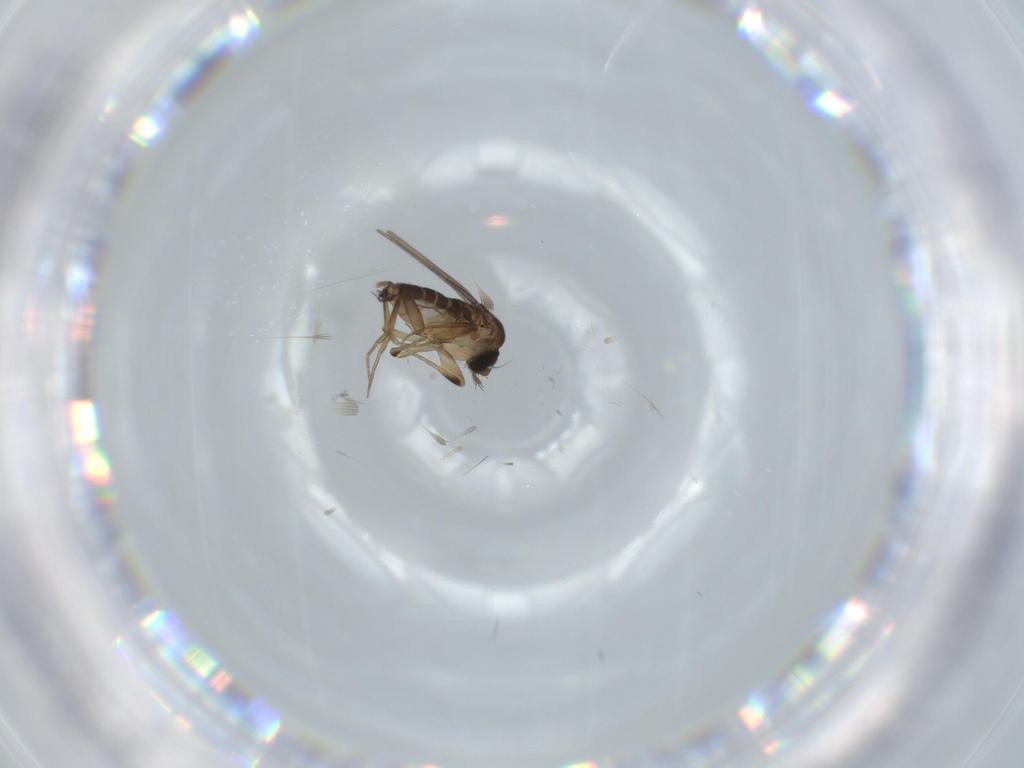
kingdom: Animalia
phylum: Arthropoda
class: Insecta
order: Diptera
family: Phoridae
